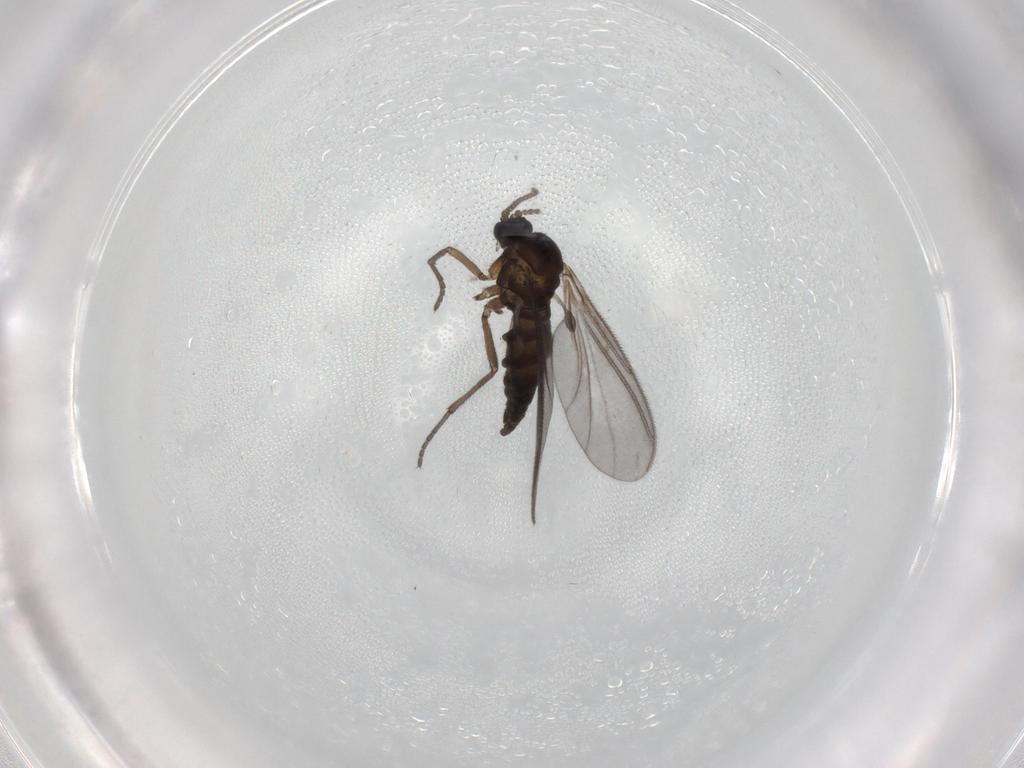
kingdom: Animalia
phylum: Arthropoda
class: Insecta
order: Diptera
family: Sciaridae
